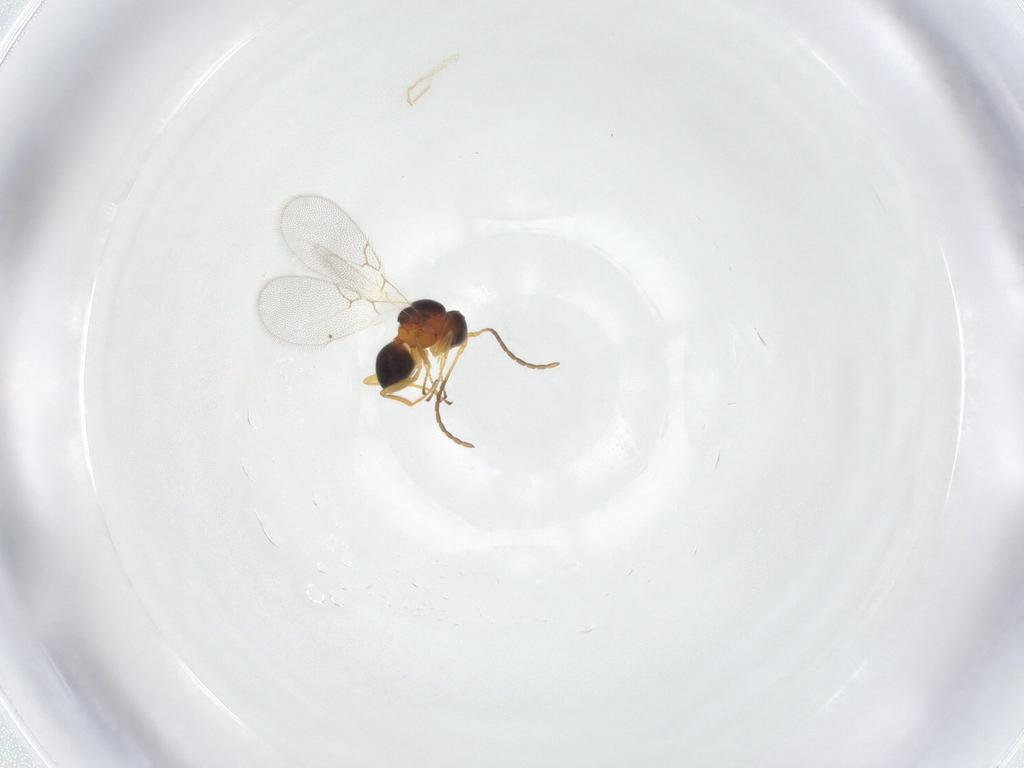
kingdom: Animalia
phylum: Arthropoda
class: Insecta
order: Hymenoptera
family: Figitidae
